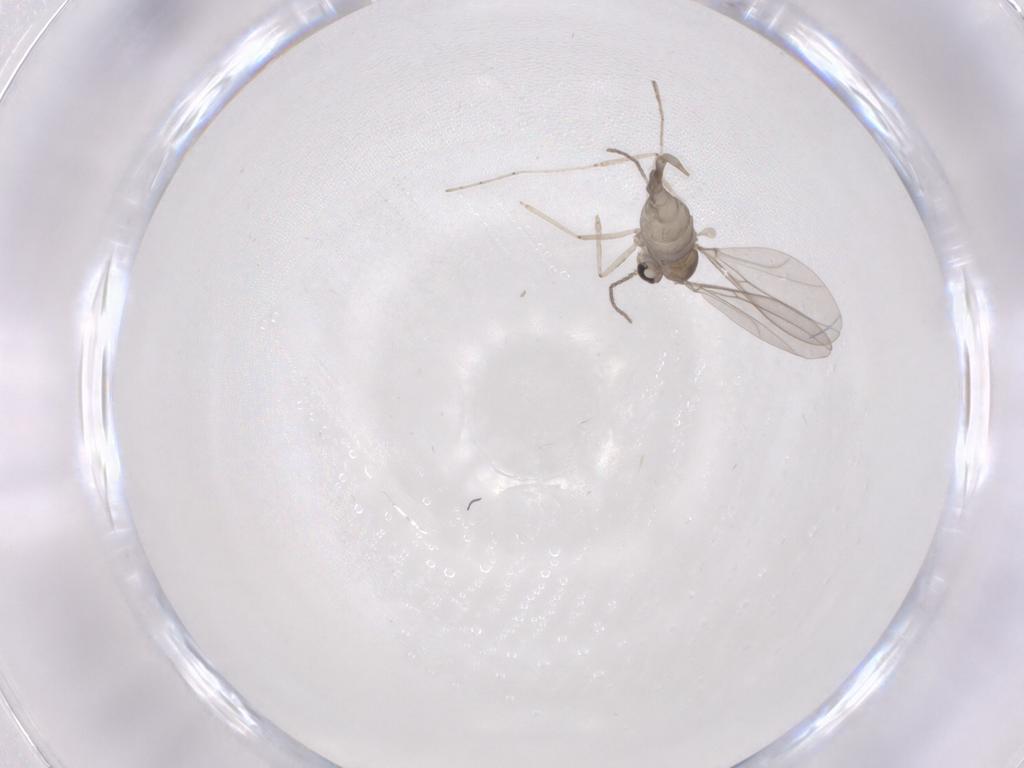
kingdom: Animalia
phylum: Arthropoda
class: Insecta
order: Diptera
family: Cecidomyiidae
